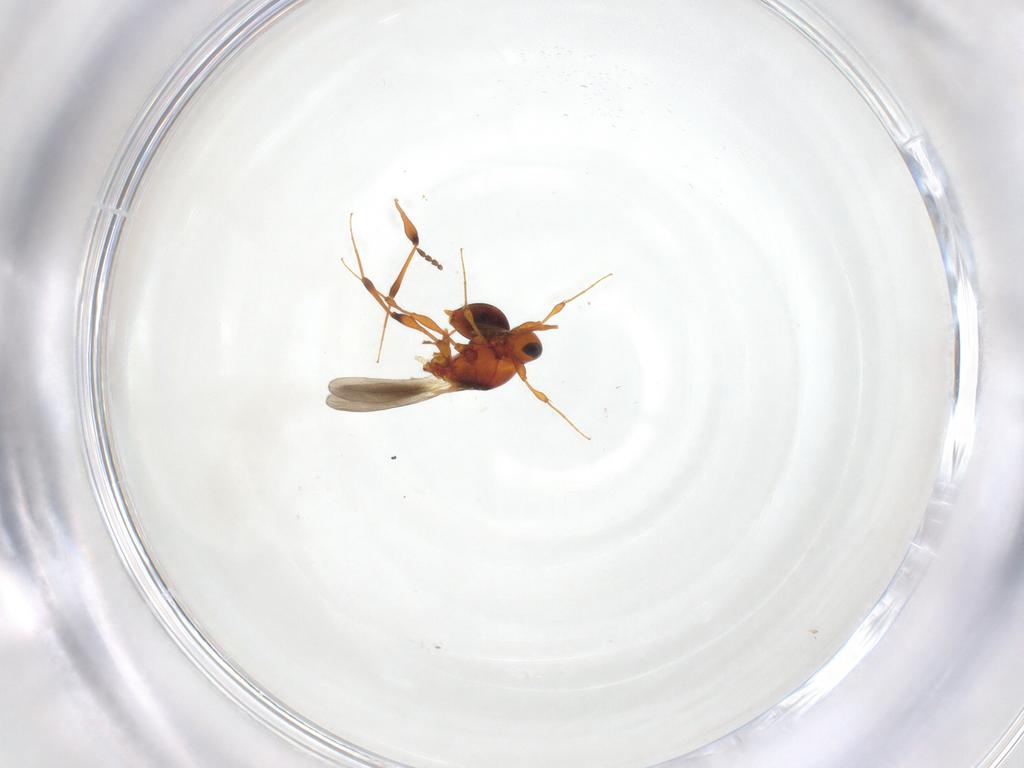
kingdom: Animalia
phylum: Arthropoda
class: Insecta
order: Hymenoptera
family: Platygastridae
